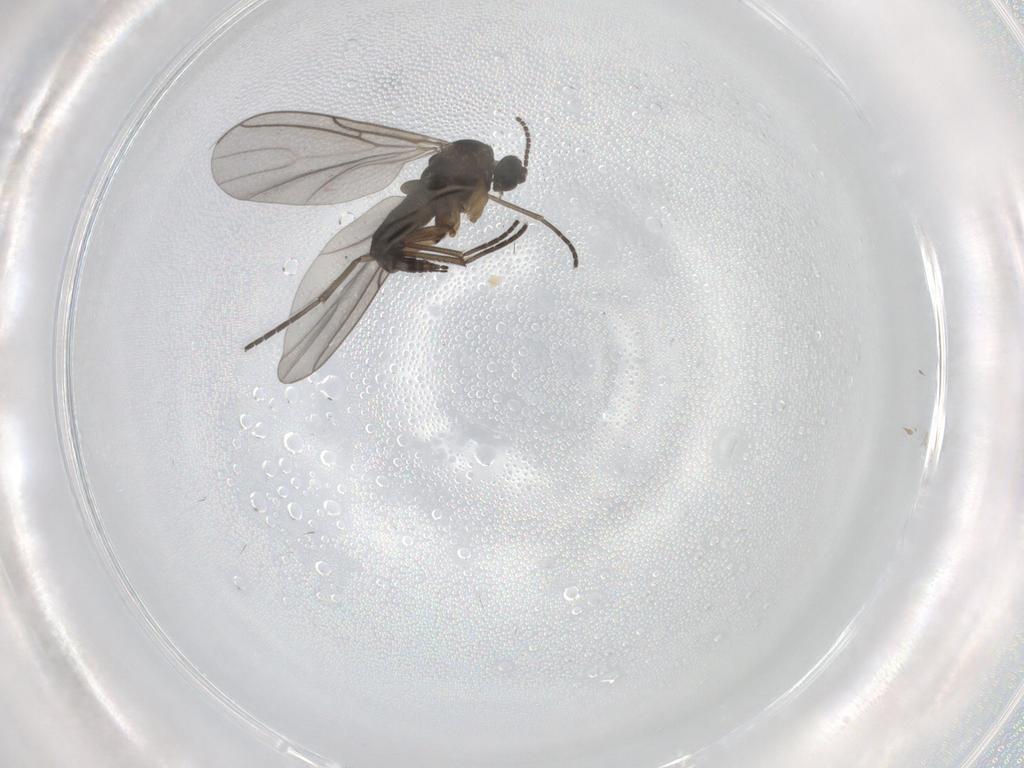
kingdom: Animalia
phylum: Arthropoda
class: Insecta
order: Diptera
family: Sciaridae
